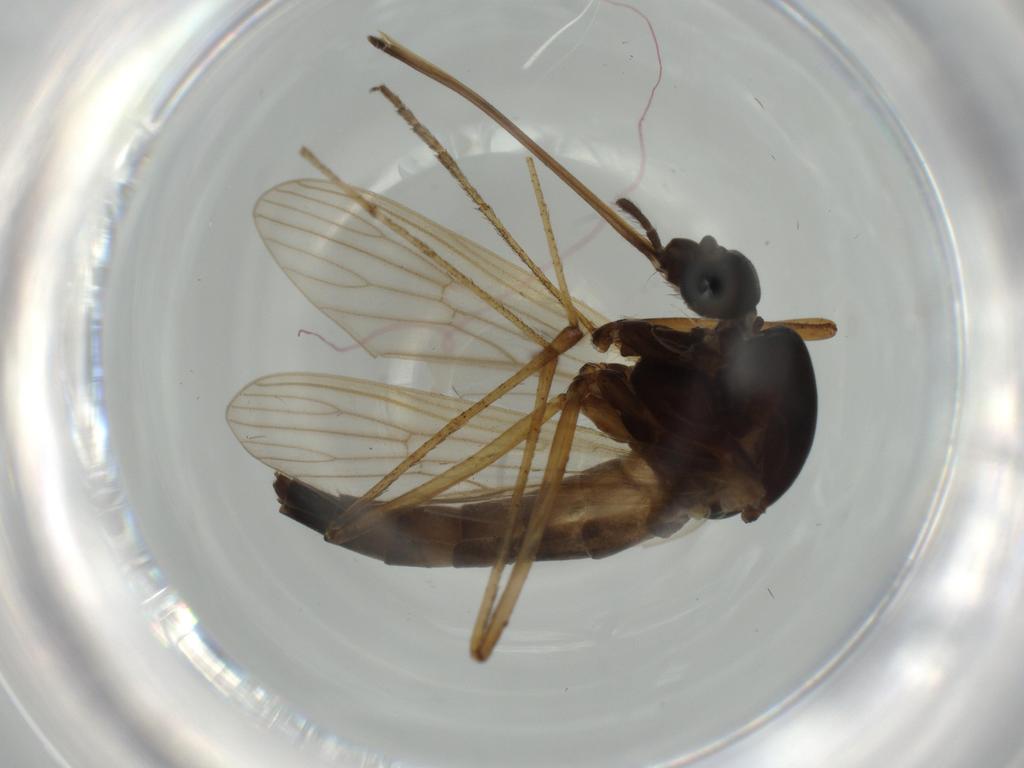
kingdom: Animalia
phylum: Arthropoda
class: Insecta
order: Diptera
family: Chloropidae
